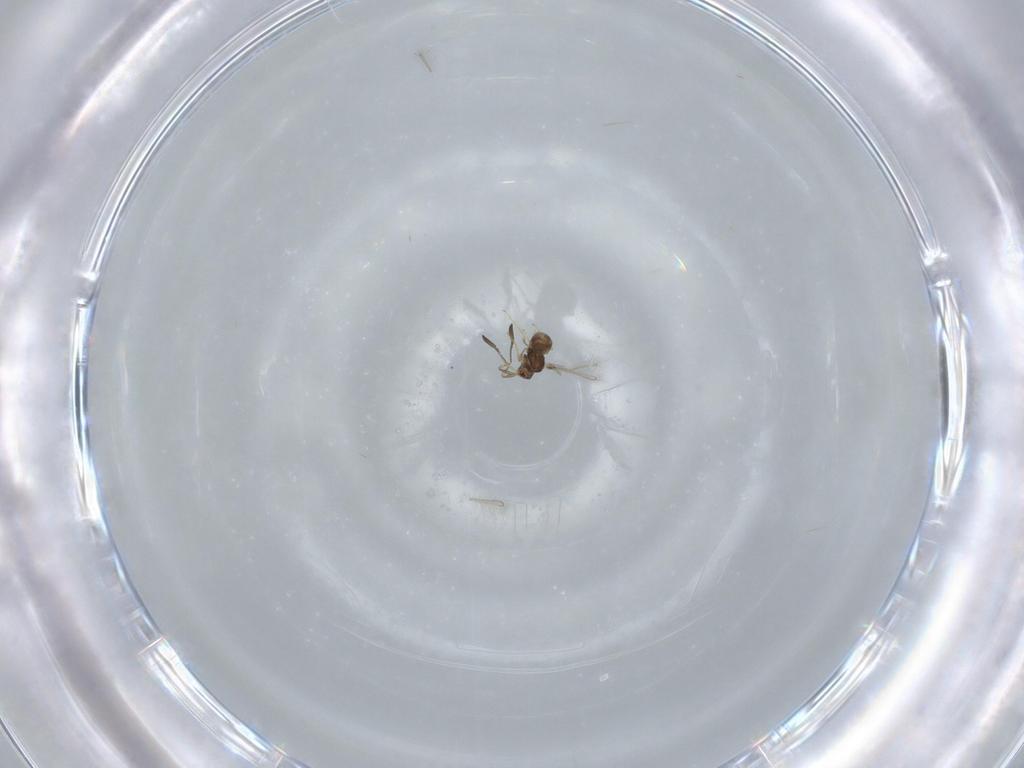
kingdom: Animalia
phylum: Arthropoda
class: Insecta
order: Hymenoptera
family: Mymaridae
